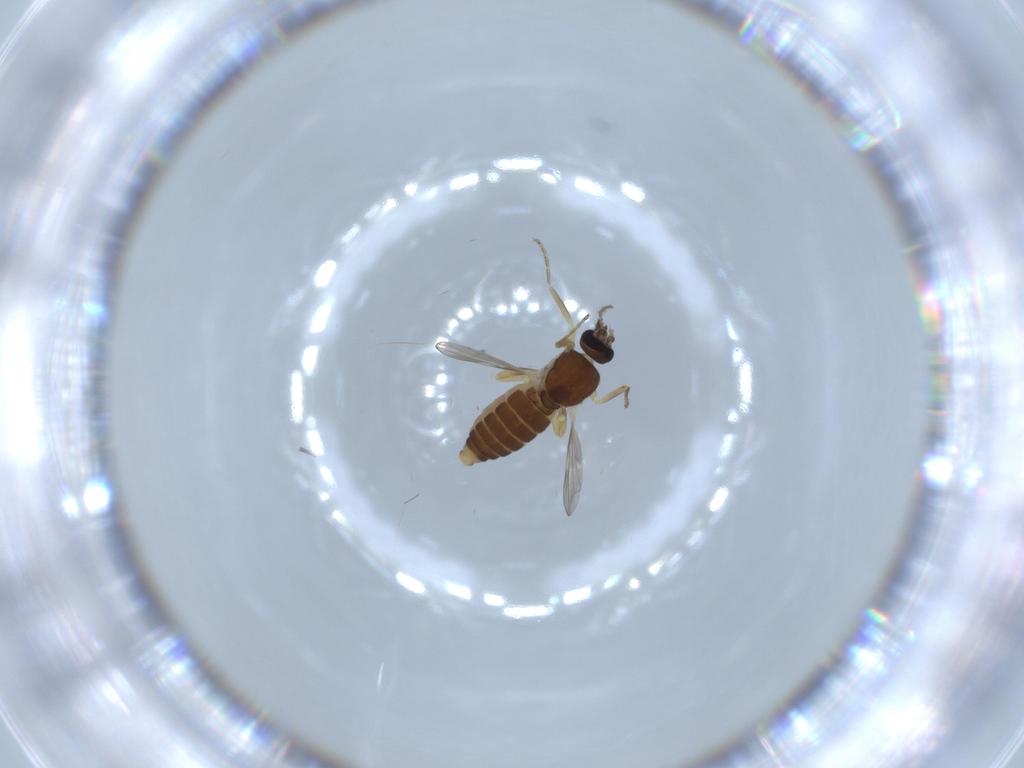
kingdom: Animalia
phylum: Arthropoda
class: Insecta
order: Diptera
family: Ceratopogonidae
